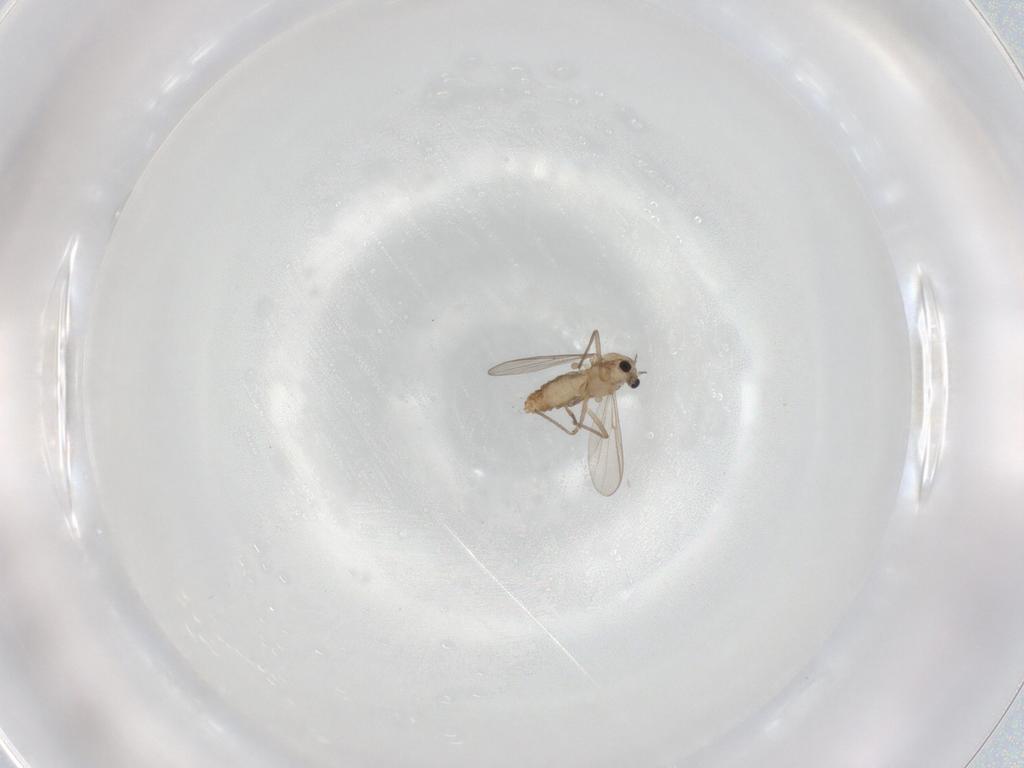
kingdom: Animalia
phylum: Arthropoda
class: Insecta
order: Diptera
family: Chironomidae
